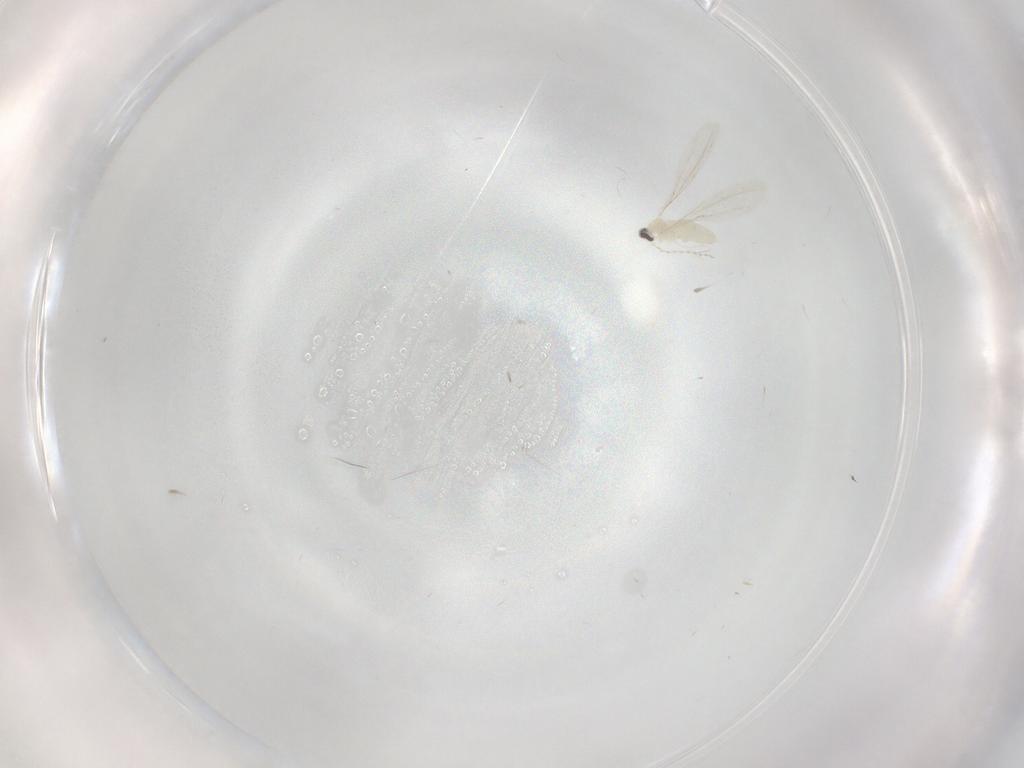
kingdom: Animalia
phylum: Arthropoda
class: Insecta
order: Diptera
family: Cecidomyiidae
